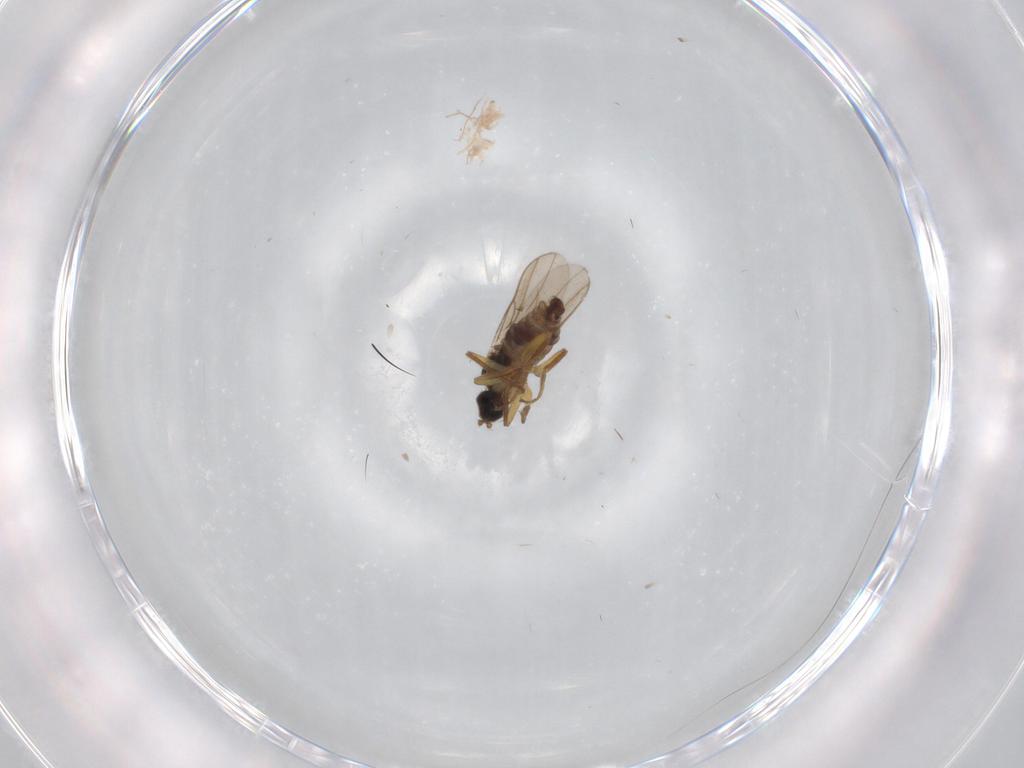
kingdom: Animalia
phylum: Arthropoda
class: Insecta
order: Diptera
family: Hybotidae
